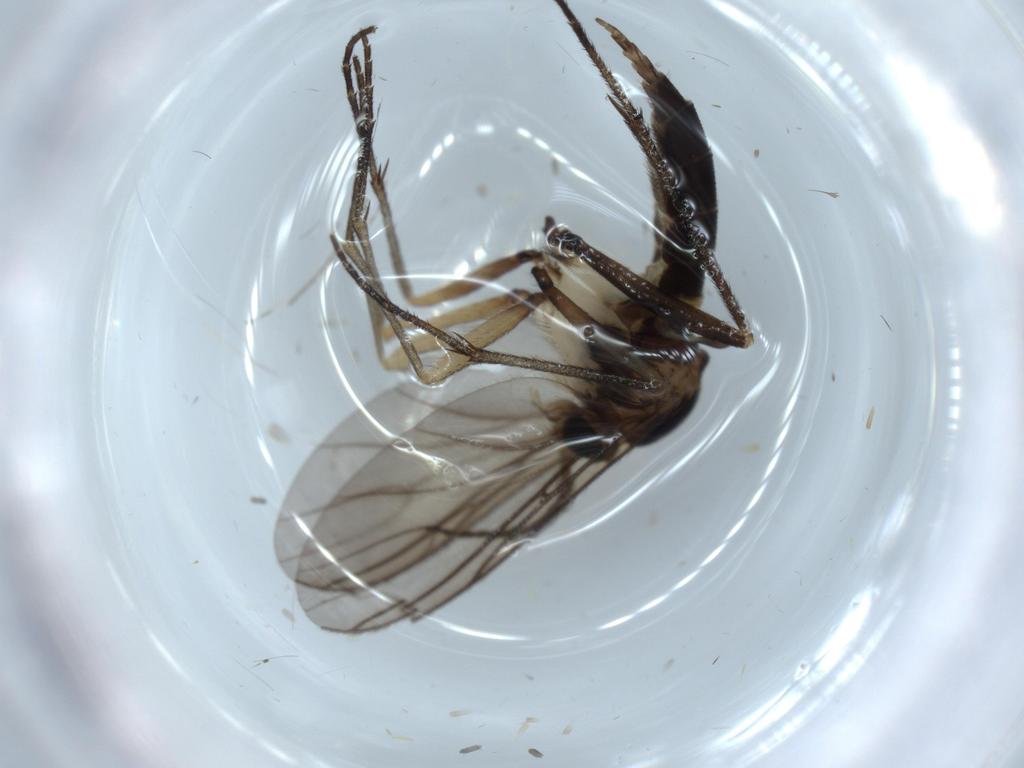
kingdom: Animalia
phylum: Arthropoda
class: Insecta
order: Diptera
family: Sciaridae
